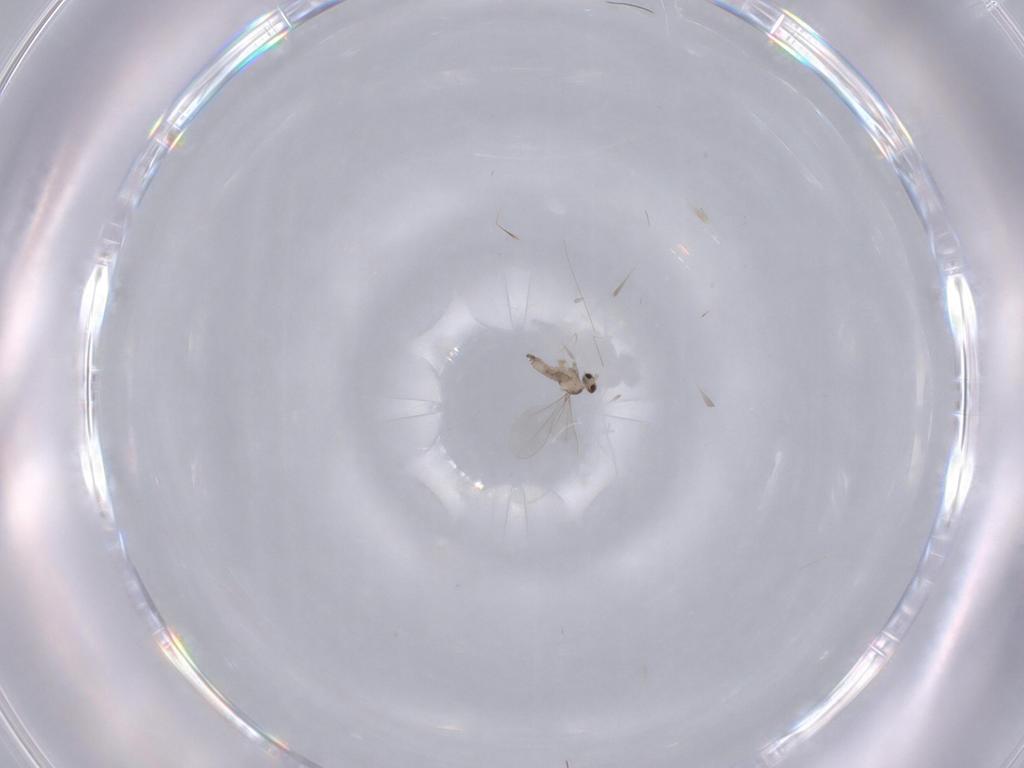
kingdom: Animalia
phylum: Arthropoda
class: Insecta
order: Diptera
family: Cecidomyiidae
